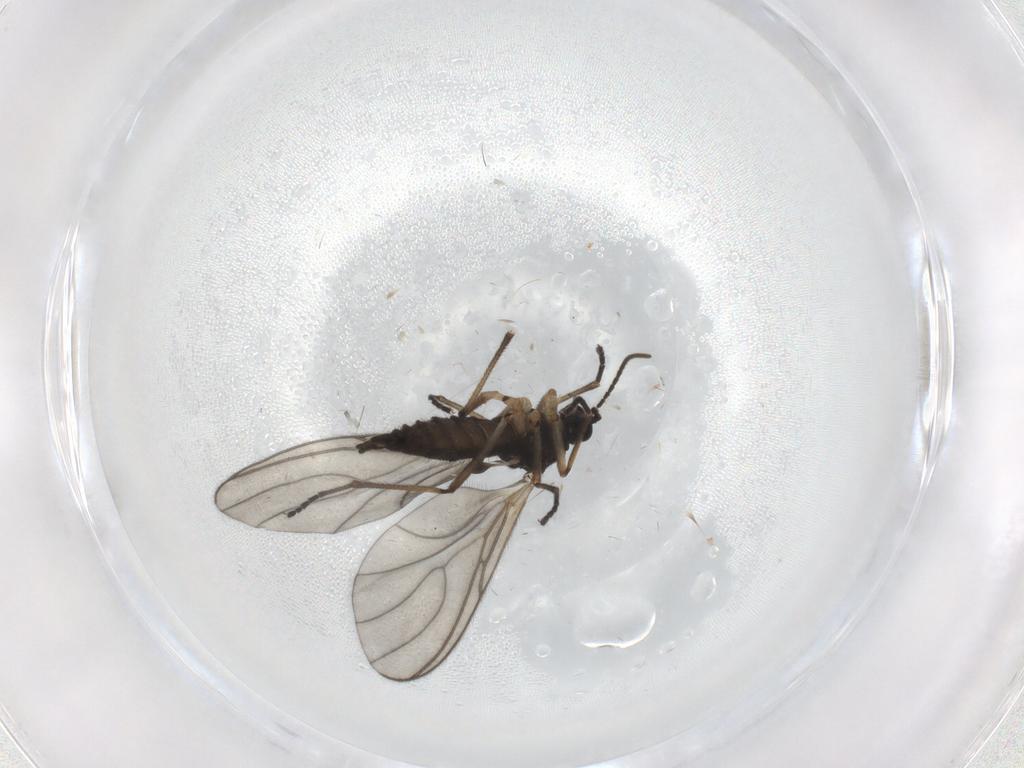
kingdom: Animalia
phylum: Arthropoda
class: Insecta
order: Diptera
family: Sciaridae
